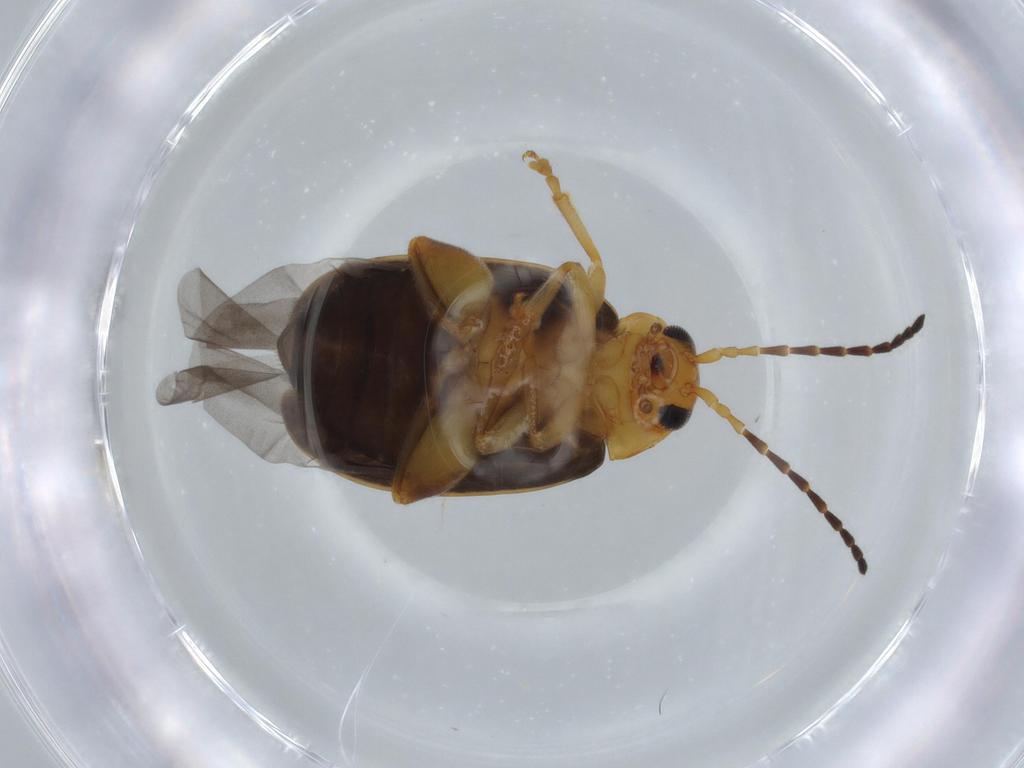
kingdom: Animalia
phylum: Arthropoda
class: Insecta
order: Coleoptera
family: Chrysomelidae
